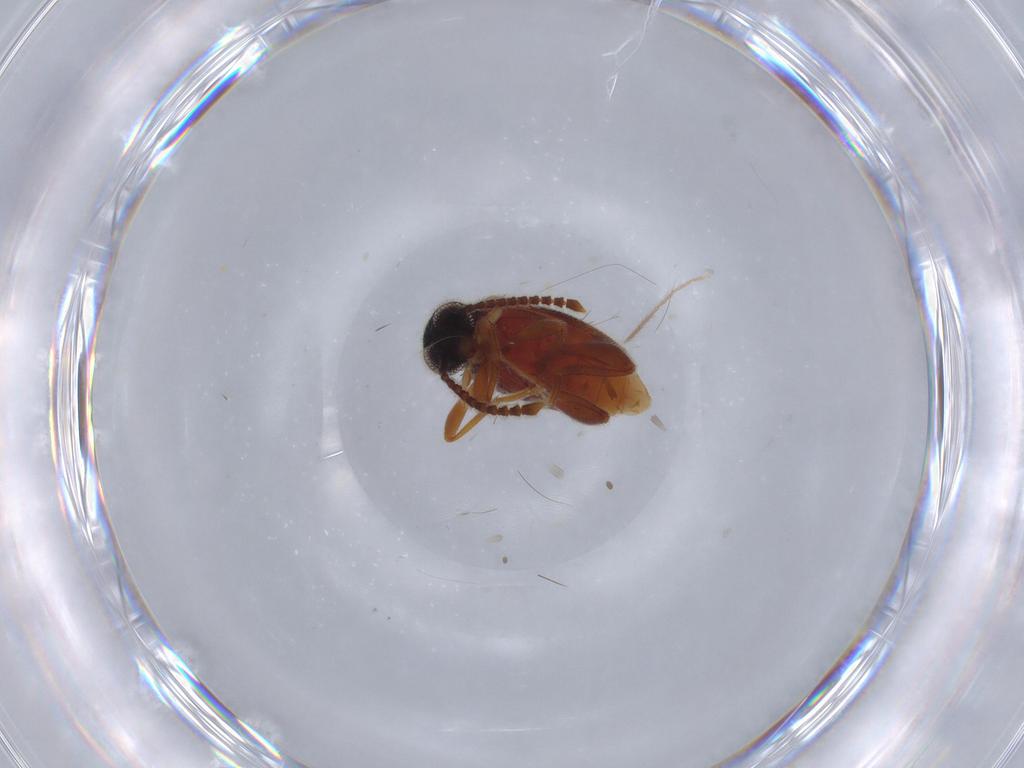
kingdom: Animalia
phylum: Arthropoda
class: Insecta
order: Coleoptera
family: Aderidae
